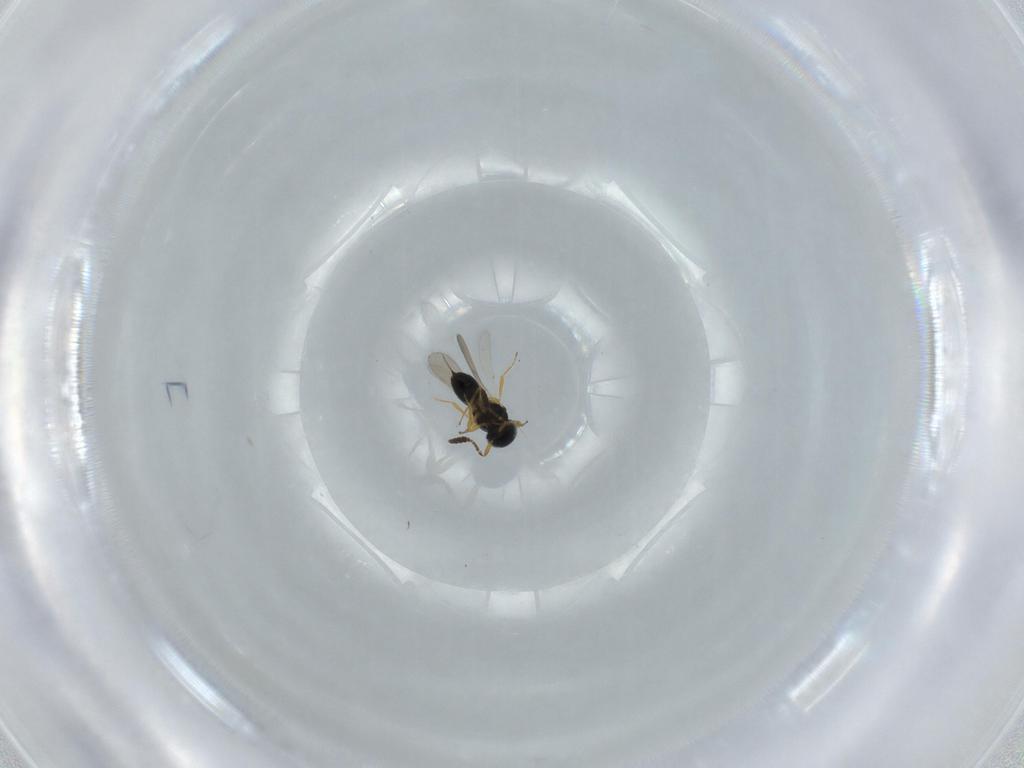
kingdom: Animalia
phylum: Arthropoda
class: Insecta
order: Hymenoptera
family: Scelionidae
